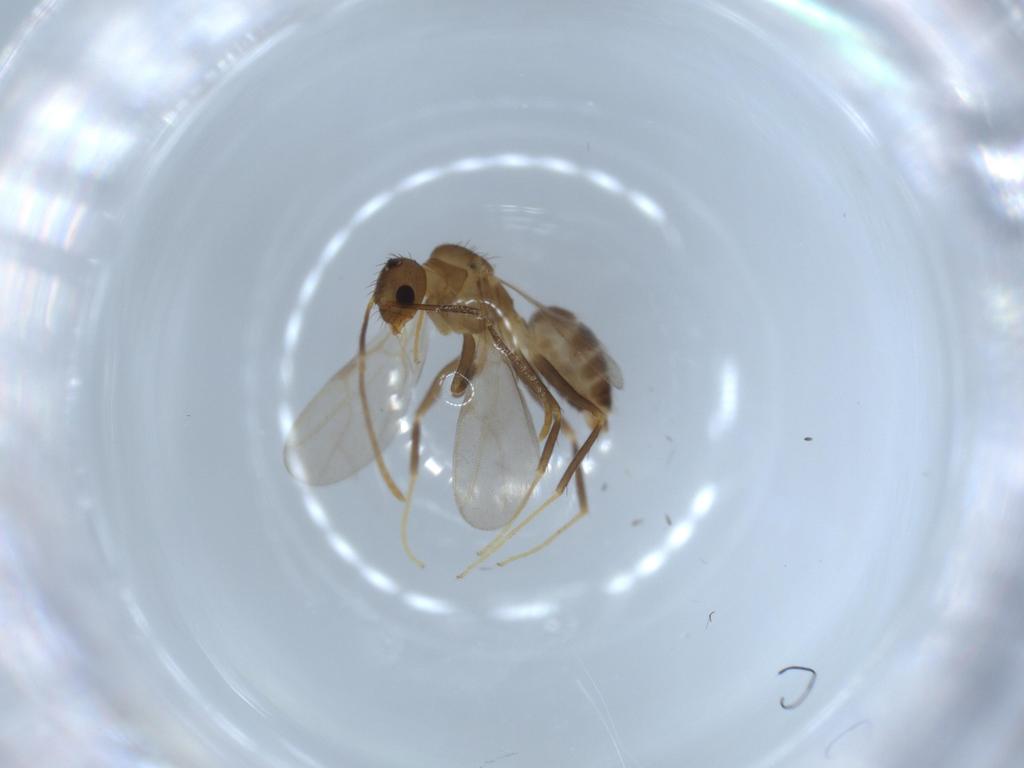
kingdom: Animalia
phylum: Arthropoda
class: Insecta
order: Hymenoptera
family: Formicidae
